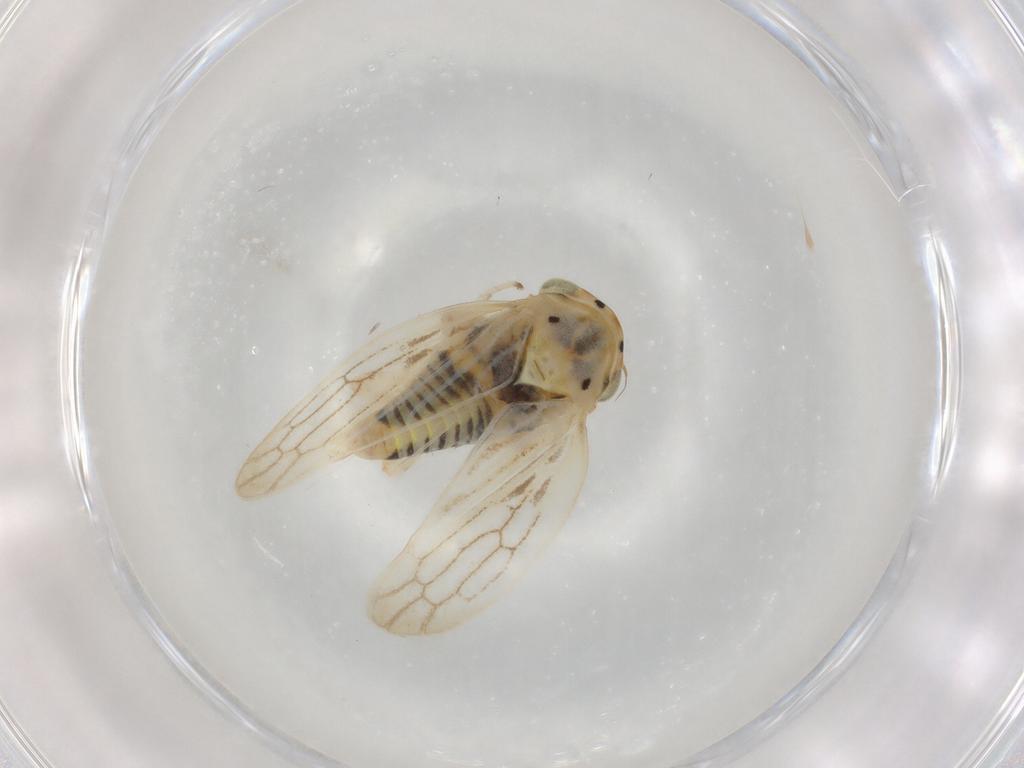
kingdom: Animalia
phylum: Arthropoda
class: Insecta
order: Hemiptera
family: Cicadellidae
